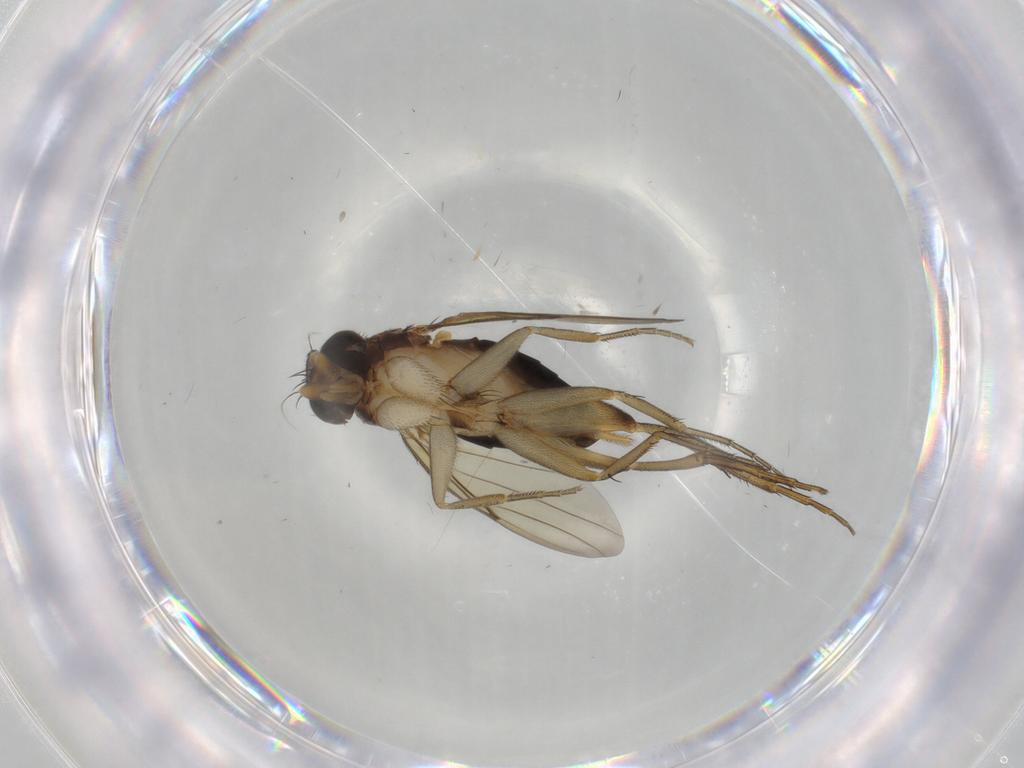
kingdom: Animalia
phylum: Arthropoda
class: Insecta
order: Diptera
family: Phoridae
